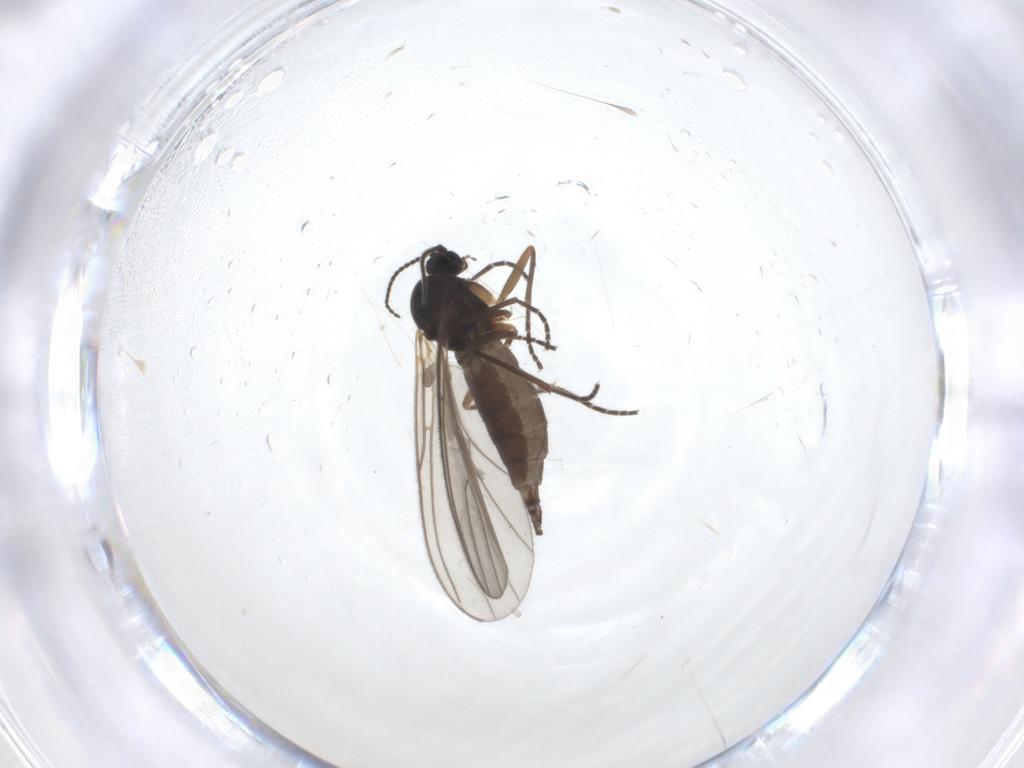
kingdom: Animalia
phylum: Arthropoda
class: Insecta
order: Diptera
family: Sciaridae
